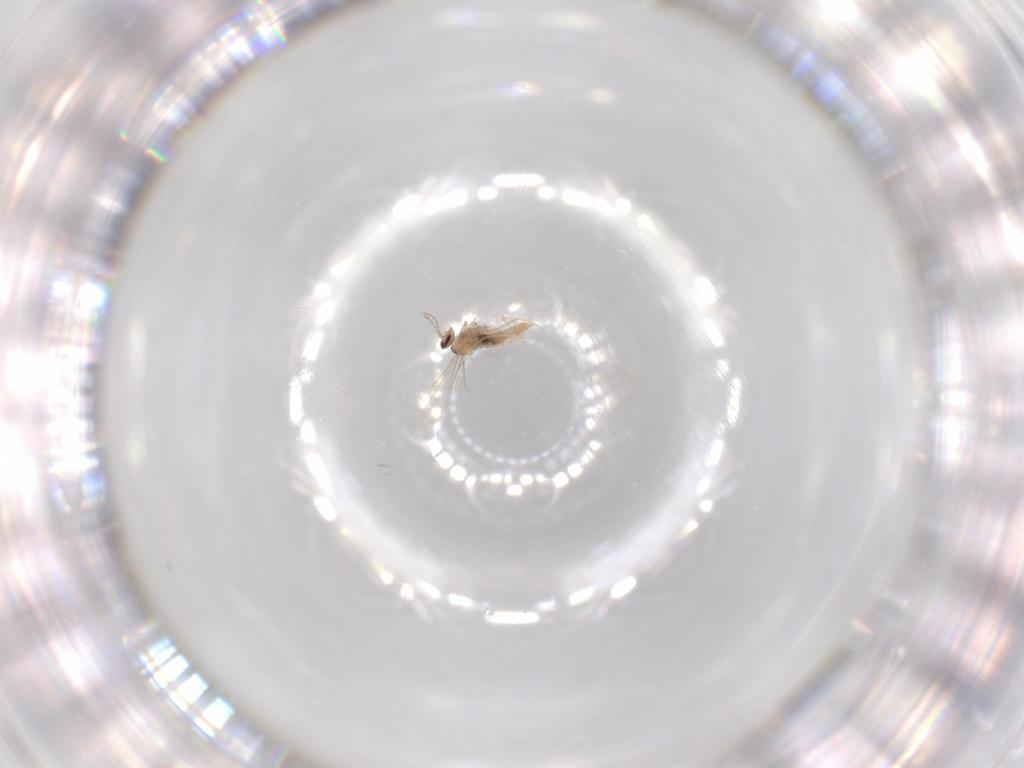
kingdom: Animalia
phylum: Arthropoda
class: Insecta
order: Diptera
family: Cecidomyiidae
